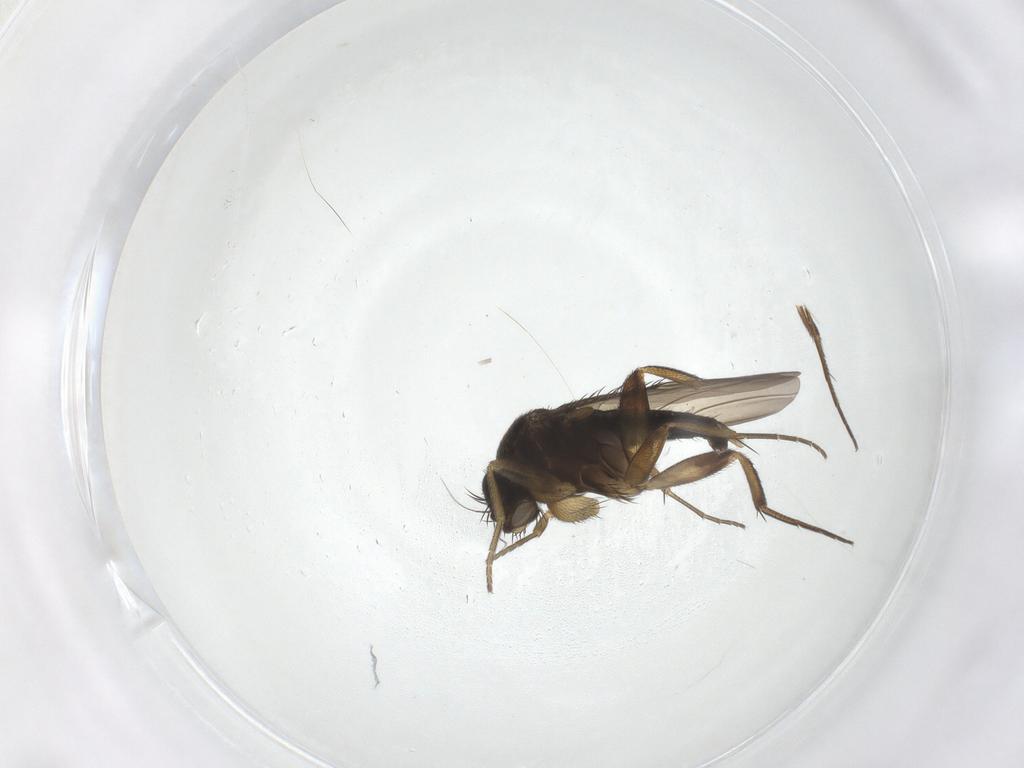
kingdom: Animalia
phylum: Arthropoda
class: Insecta
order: Diptera
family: Phoridae
